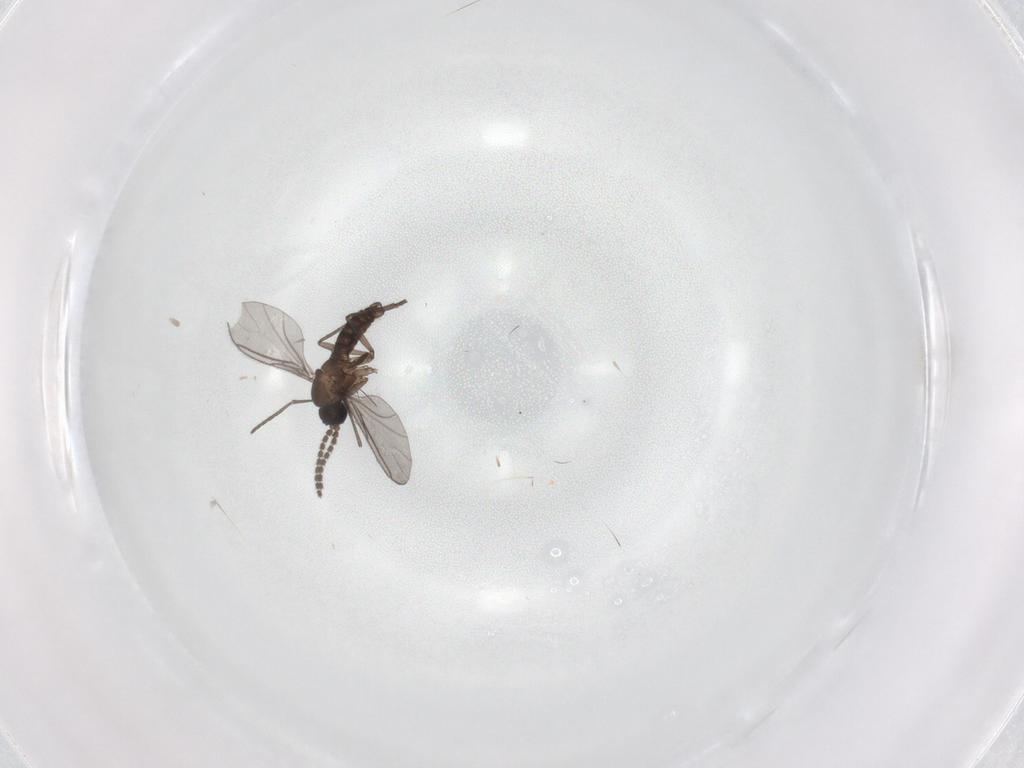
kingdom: Animalia
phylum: Arthropoda
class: Insecta
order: Diptera
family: Sciaridae
